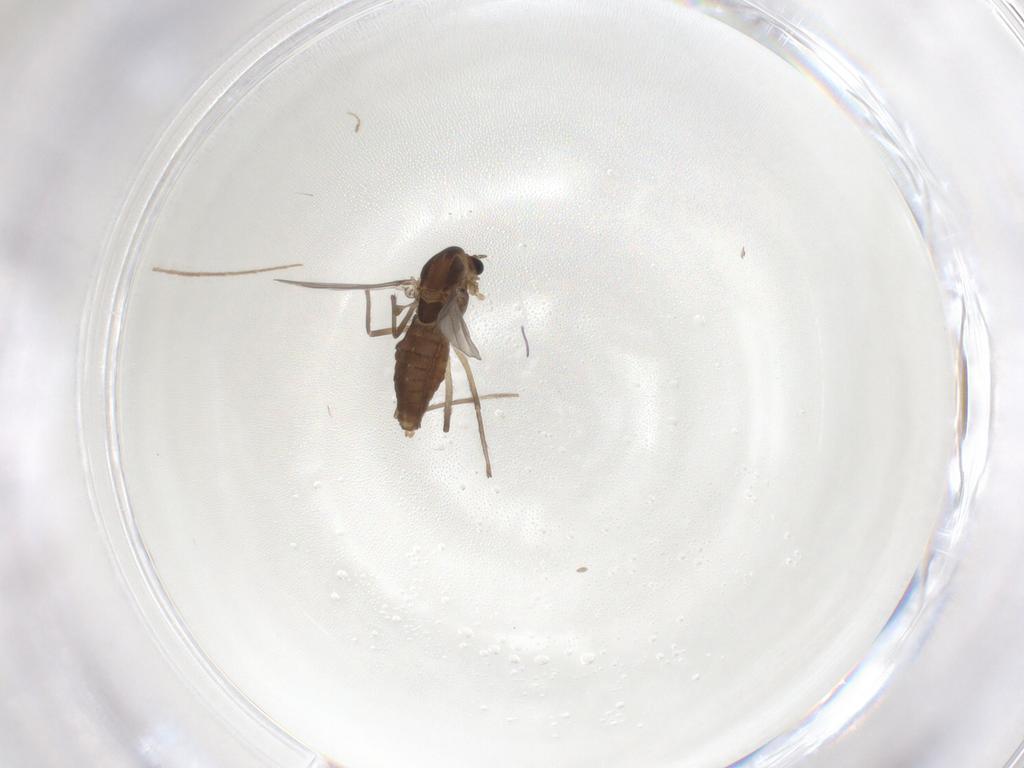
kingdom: Animalia
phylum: Arthropoda
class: Insecta
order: Diptera
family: Chironomidae
